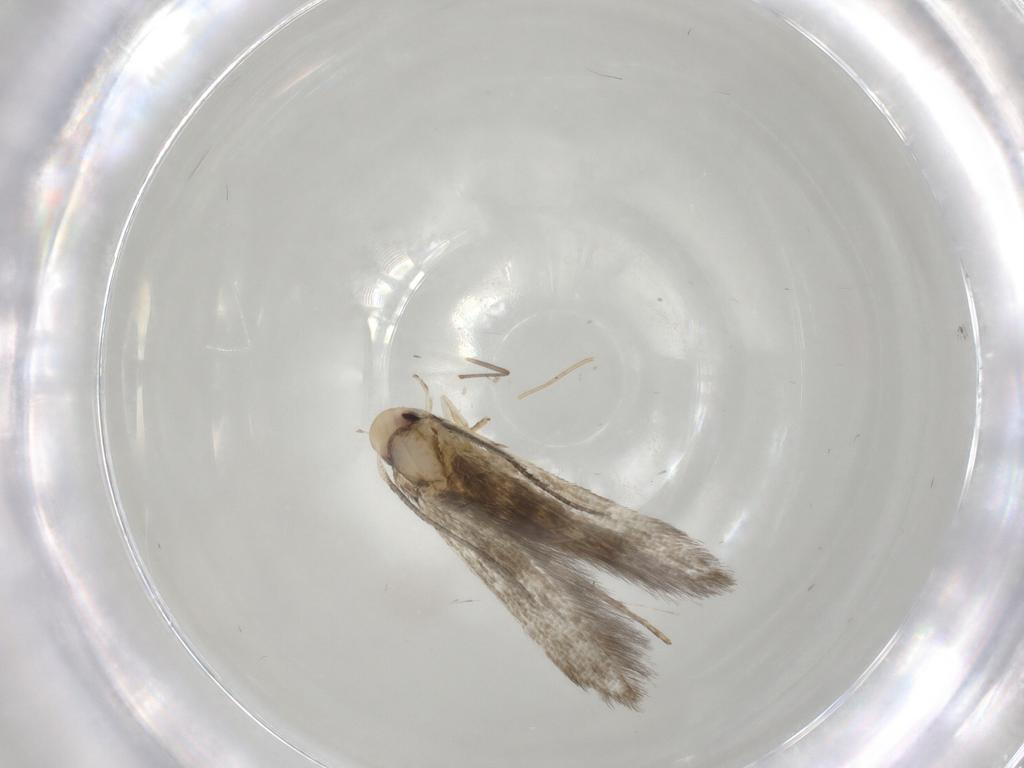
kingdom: Animalia
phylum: Arthropoda
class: Insecta
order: Lepidoptera
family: Stathmopodidae
